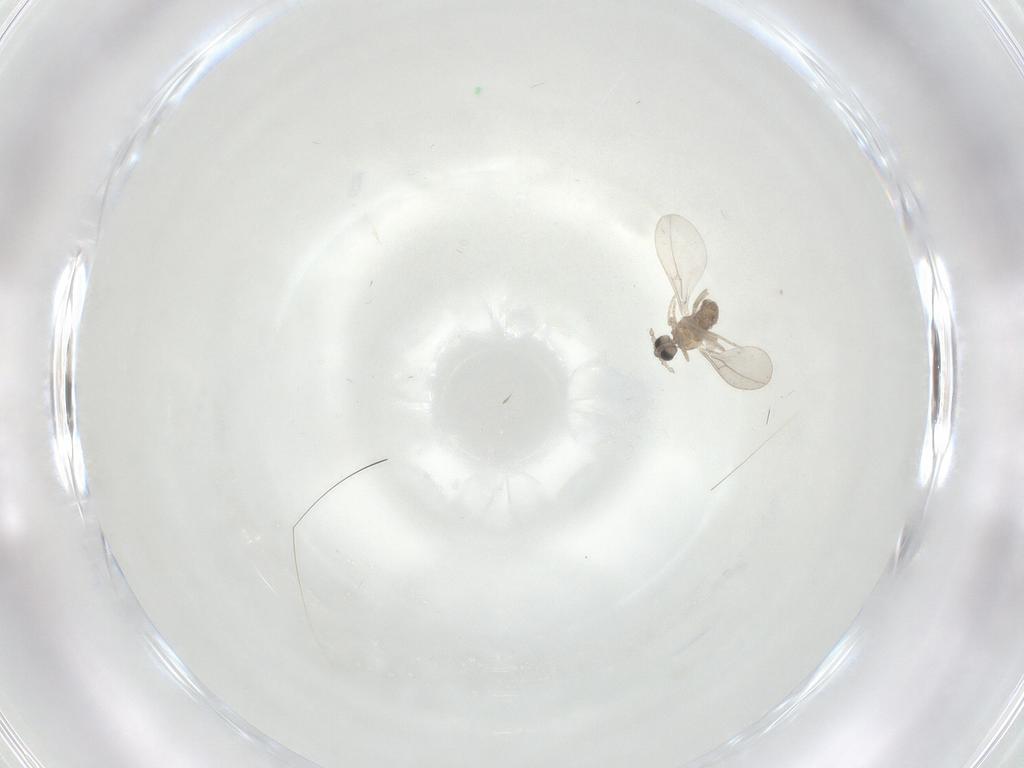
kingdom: Animalia
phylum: Arthropoda
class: Insecta
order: Diptera
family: Cecidomyiidae
